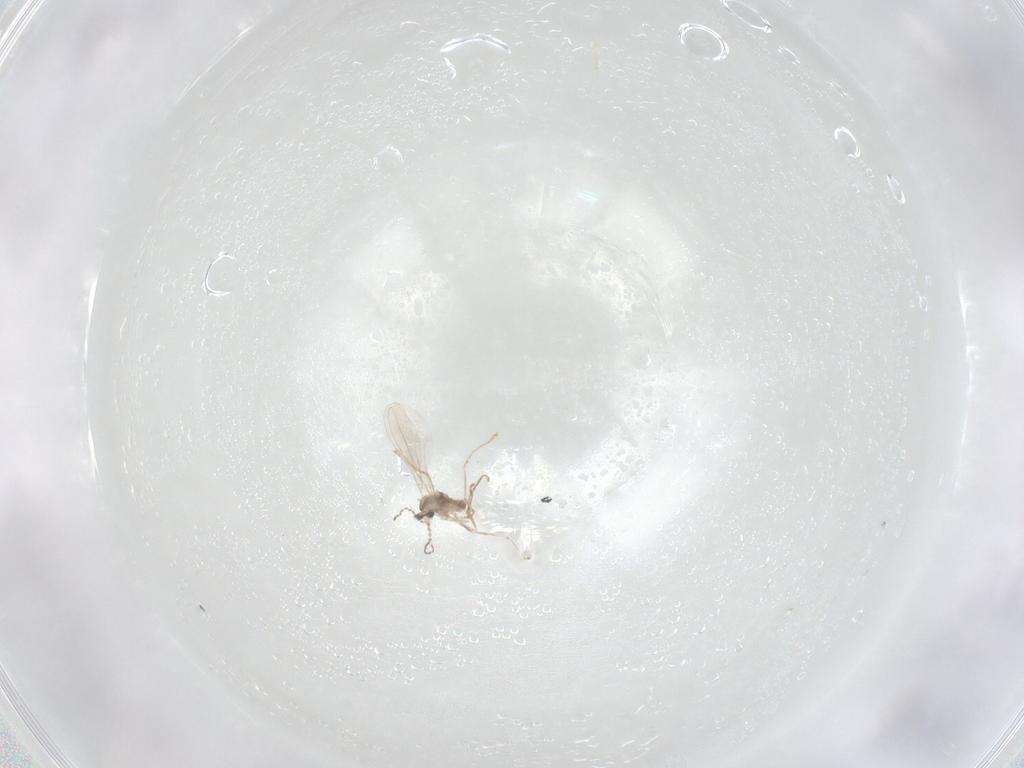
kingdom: Animalia
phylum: Arthropoda
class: Insecta
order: Diptera
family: Cecidomyiidae
